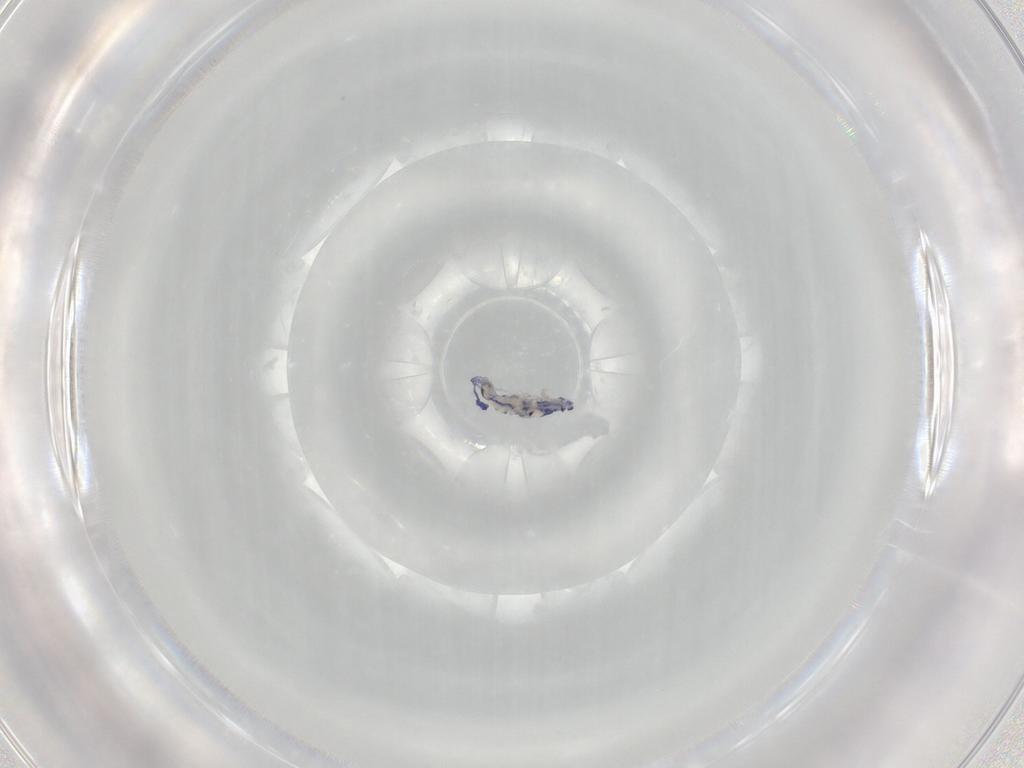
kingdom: Animalia
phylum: Arthropoda
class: Collembola
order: Entomobryomorpha
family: Entomobryidae
